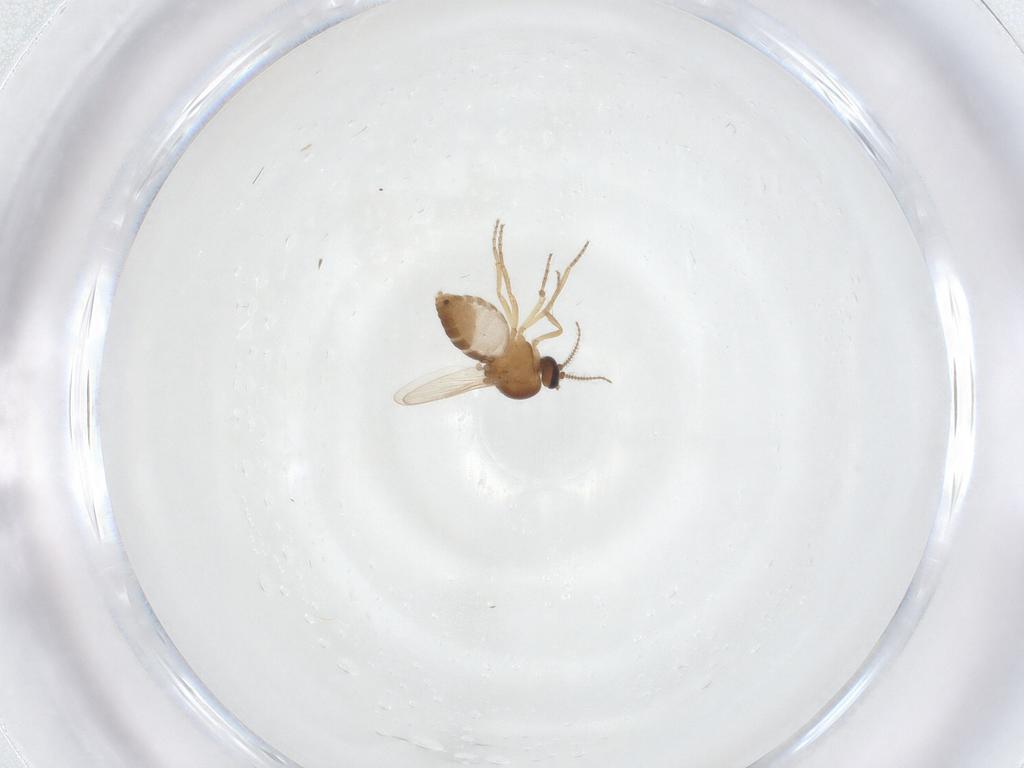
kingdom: Animalia
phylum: Arthropoda
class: Insecta
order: Diptera
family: Ceratopogonidae
